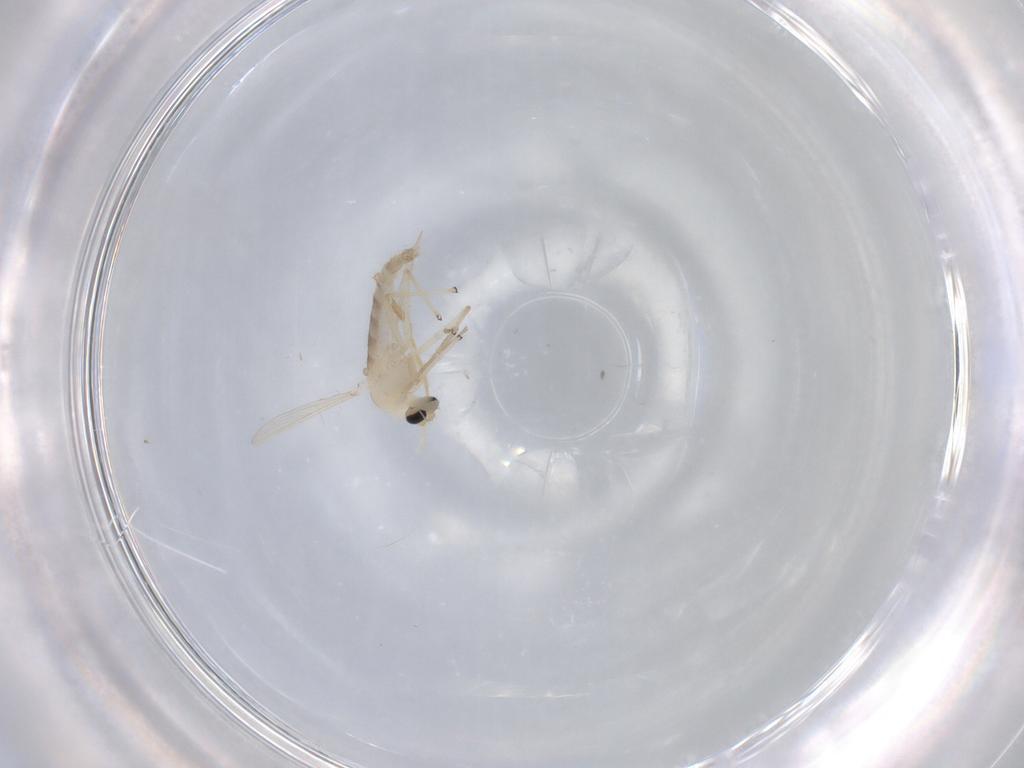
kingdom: Animalia
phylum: Arthropoda
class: Insecta
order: Diptera
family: Chironomidae
